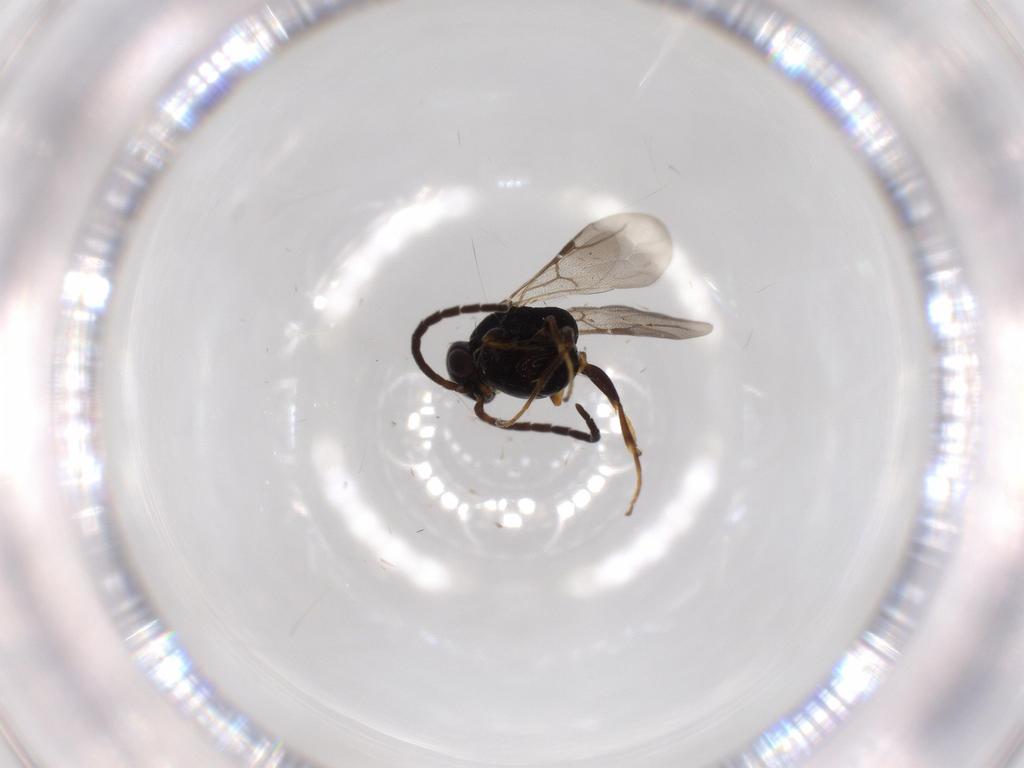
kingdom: Animalia
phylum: Arthropoda
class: Insecta
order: Hymenoptera
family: Bethylidae
